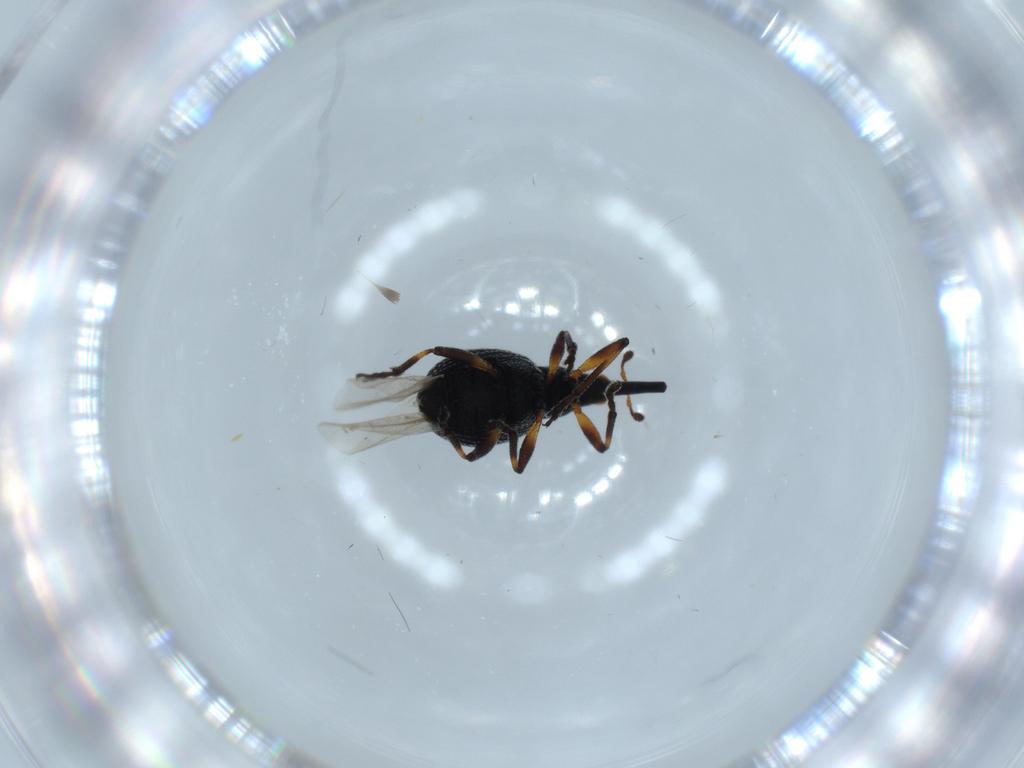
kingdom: Animalia
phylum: Arthropoda
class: Insecta
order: Coleoptera
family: Brentidae
